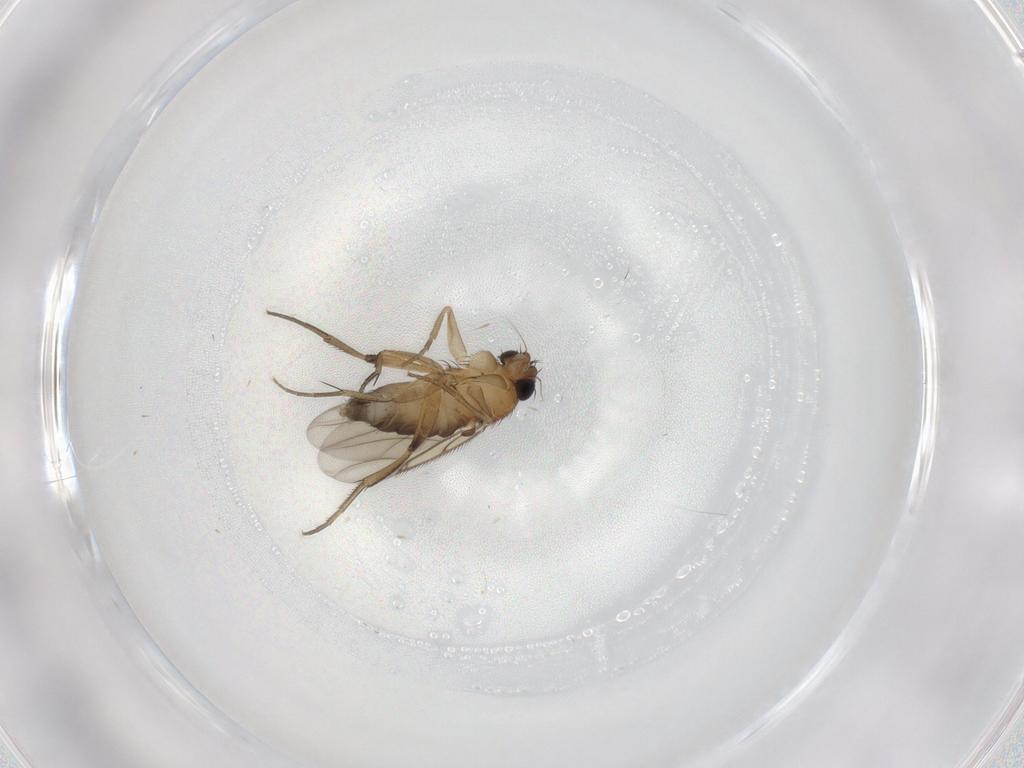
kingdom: Animalia
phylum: Arthropoda
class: Insecta
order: Diptera
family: Phoridae
